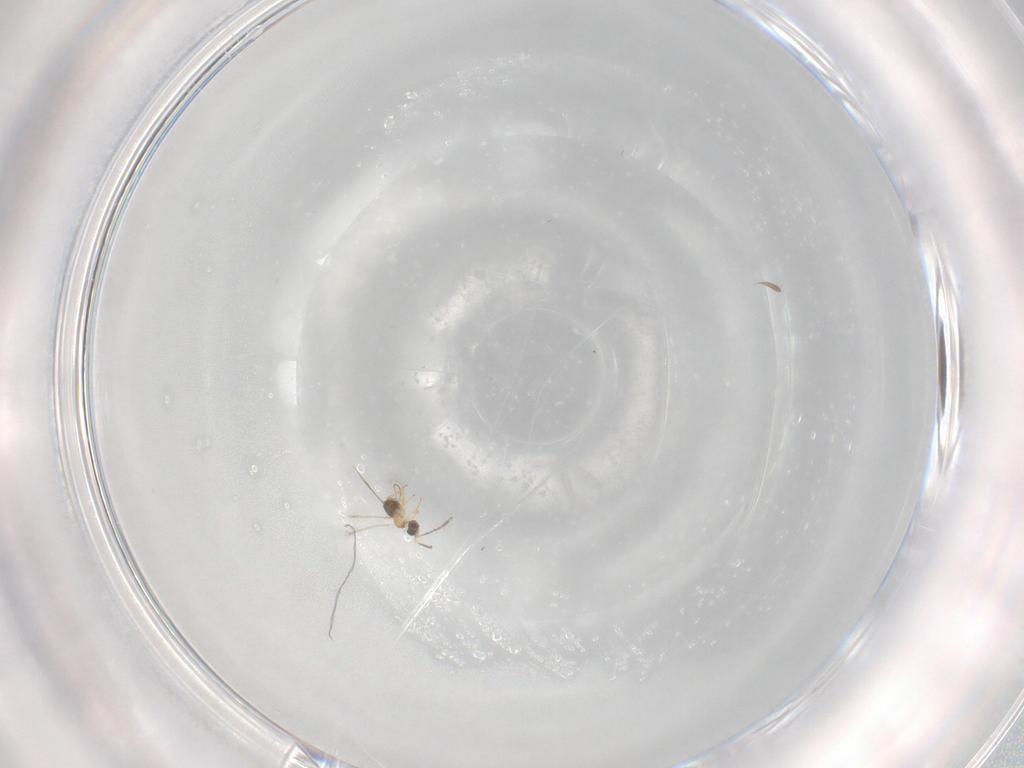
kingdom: Animalia
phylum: Arthropoda
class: Insecta
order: Hymenoptera
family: Mymaridae
